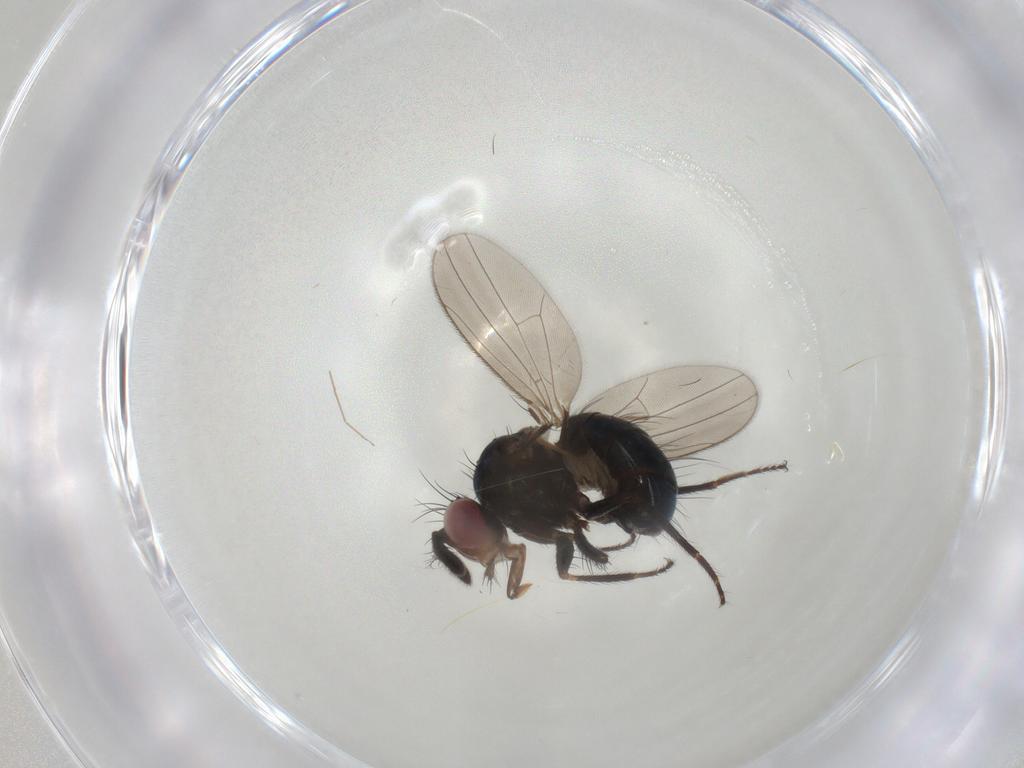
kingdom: Animalia
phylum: Arthropoda
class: Insecta
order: Diptera
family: Ephydridae
